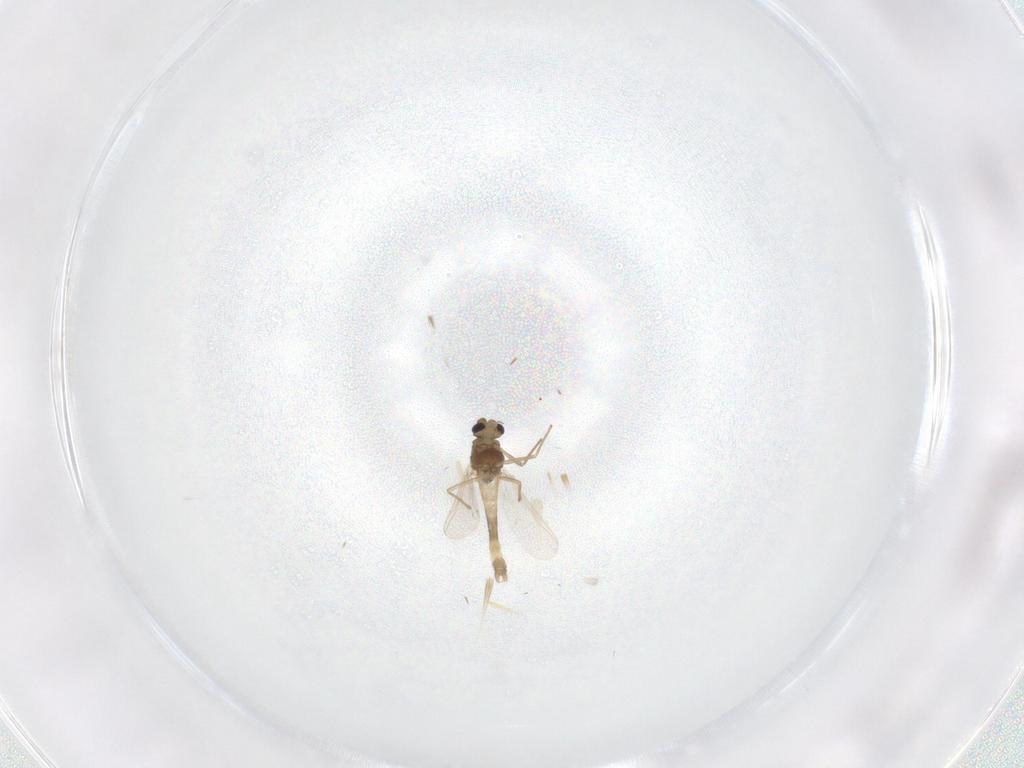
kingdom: Animalia
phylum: Arthropoda
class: Insecta
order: Diptera
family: Chironomidae
